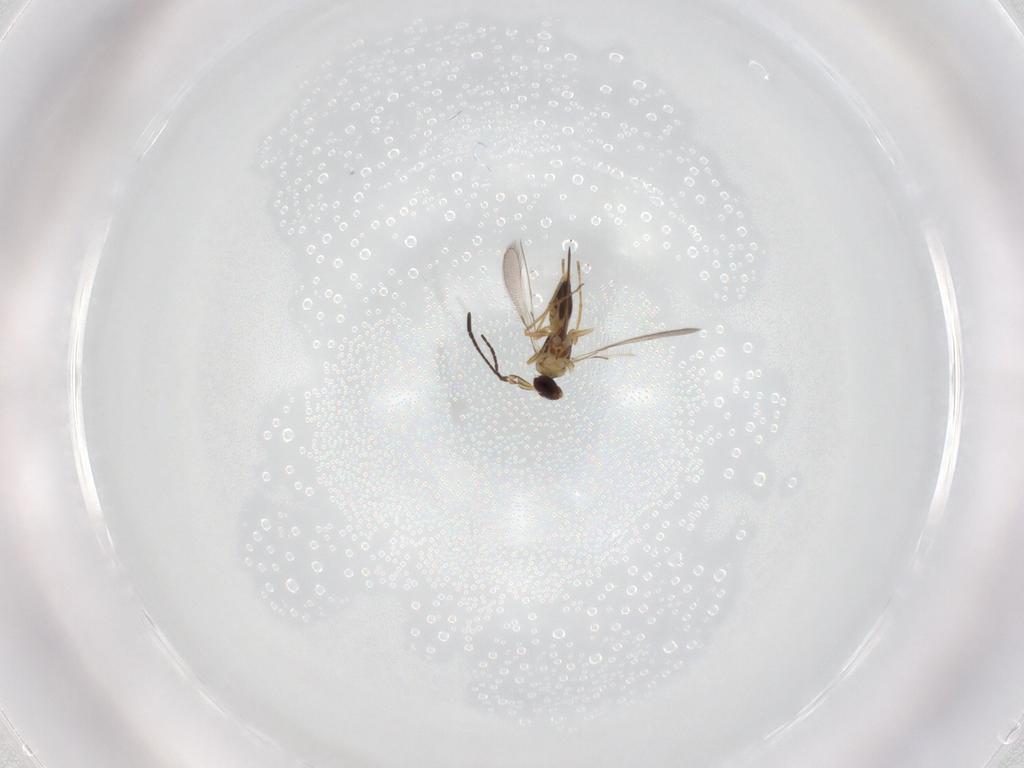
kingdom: Animalia
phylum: Arthropoda
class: Insecta
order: Hymenoptera
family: Mymaridae
